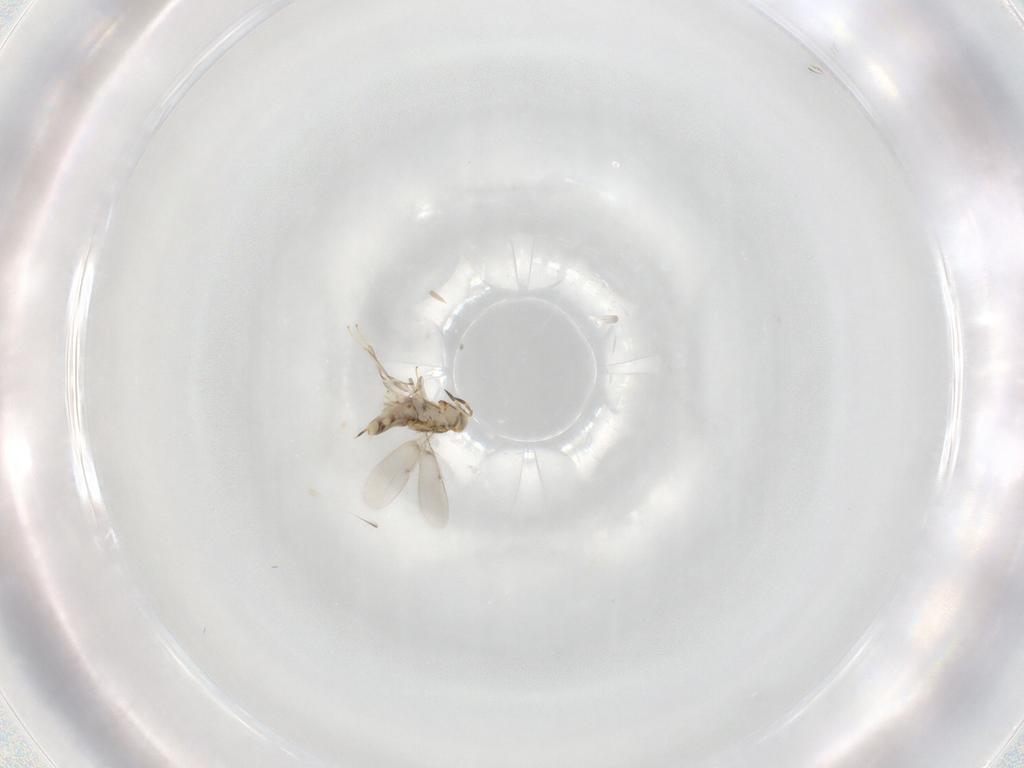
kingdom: Animalia
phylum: Arthropoda
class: Insecta
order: Hymenoptera
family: Aphelinidae
